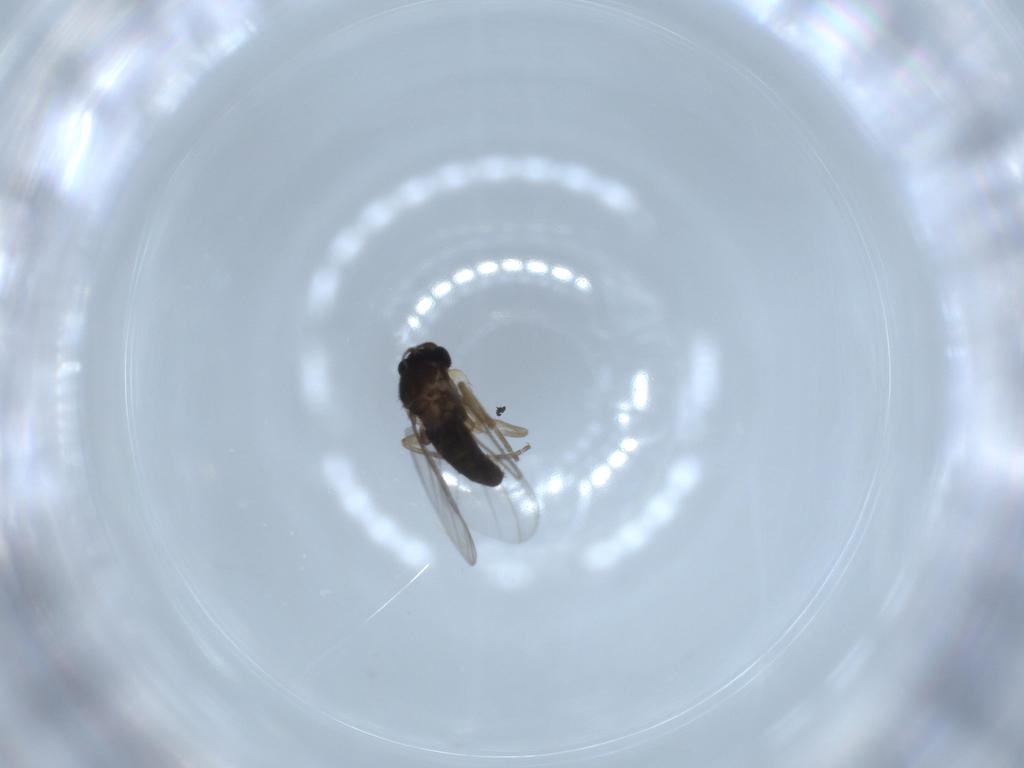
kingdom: Animalia
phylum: Arthropoda
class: Insecta
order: Diptera
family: Phoridae
